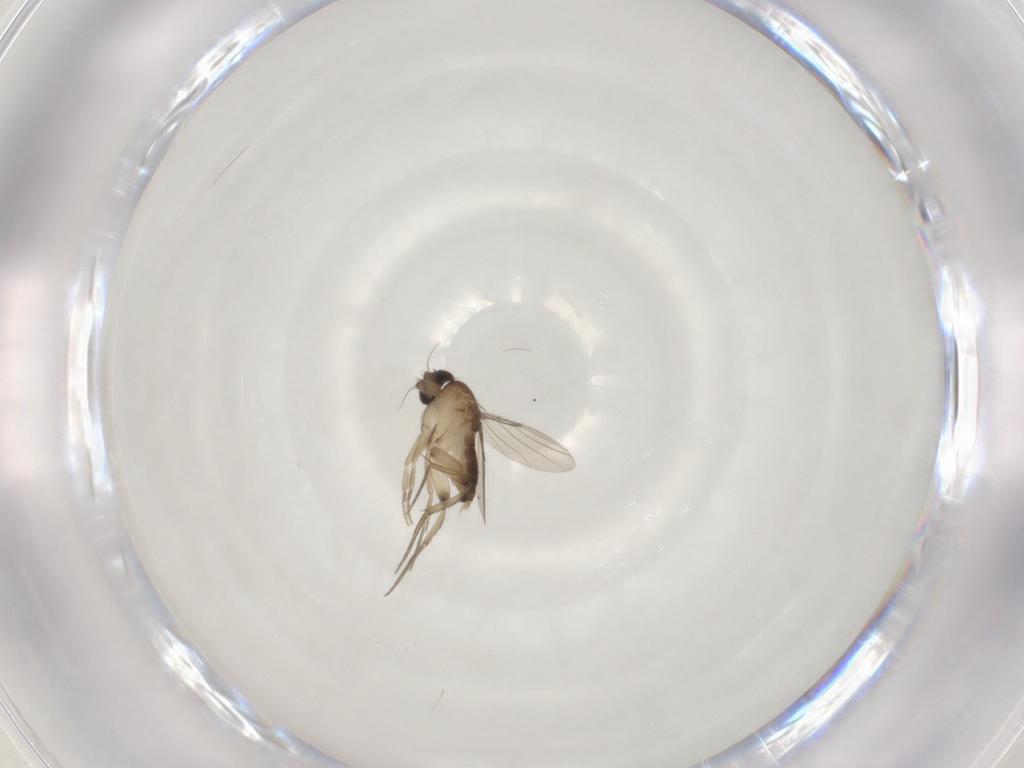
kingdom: Animalia
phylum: Arthropoda
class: Insecta
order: Diptera
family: Phoridae
